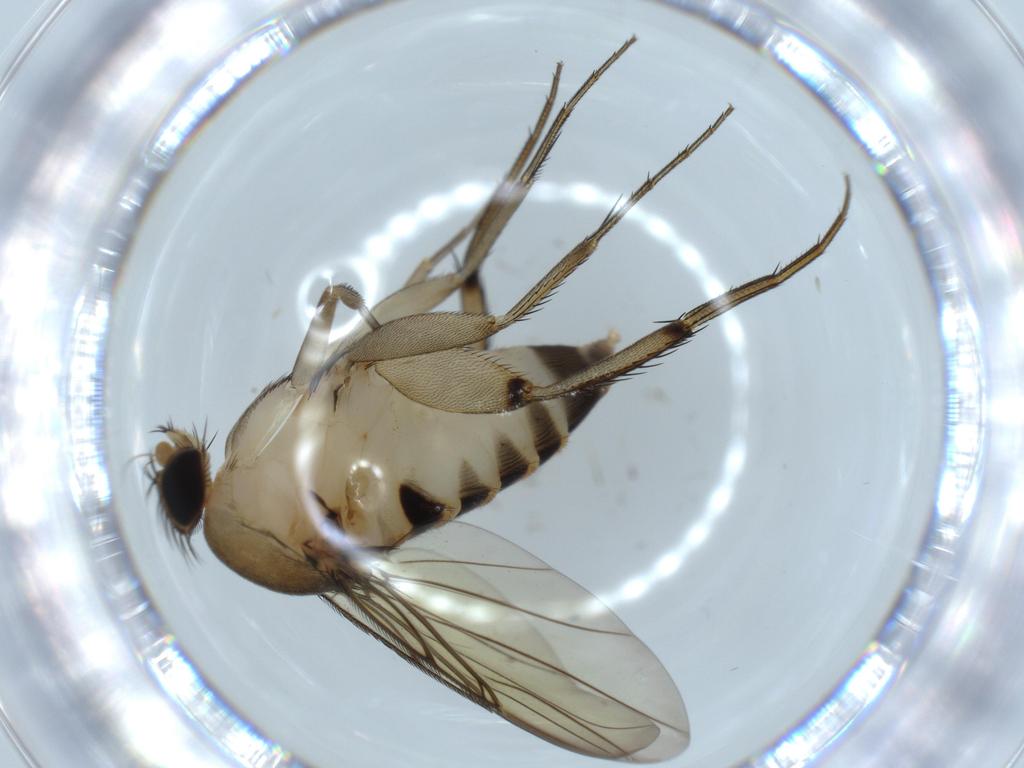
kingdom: Animalia
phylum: Arthropoda
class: Insecta
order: Diptera
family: Phoridae
